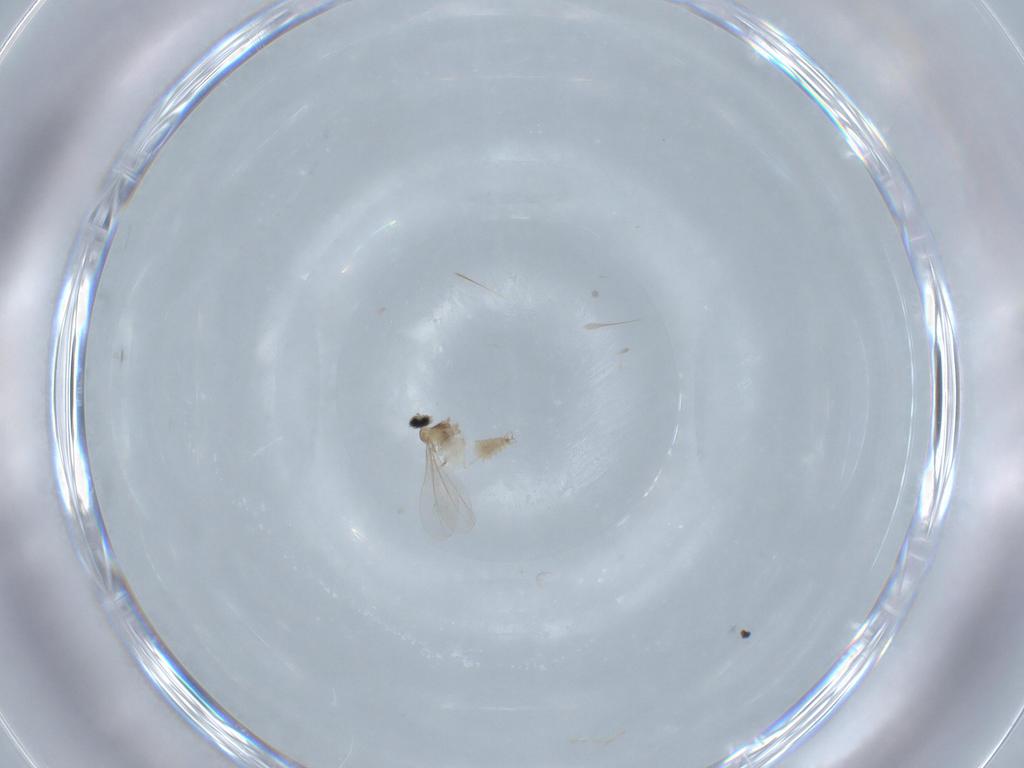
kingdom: Animalia
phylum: Arthropoda
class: Insecta
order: Diptera
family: Cecidomyiidae
